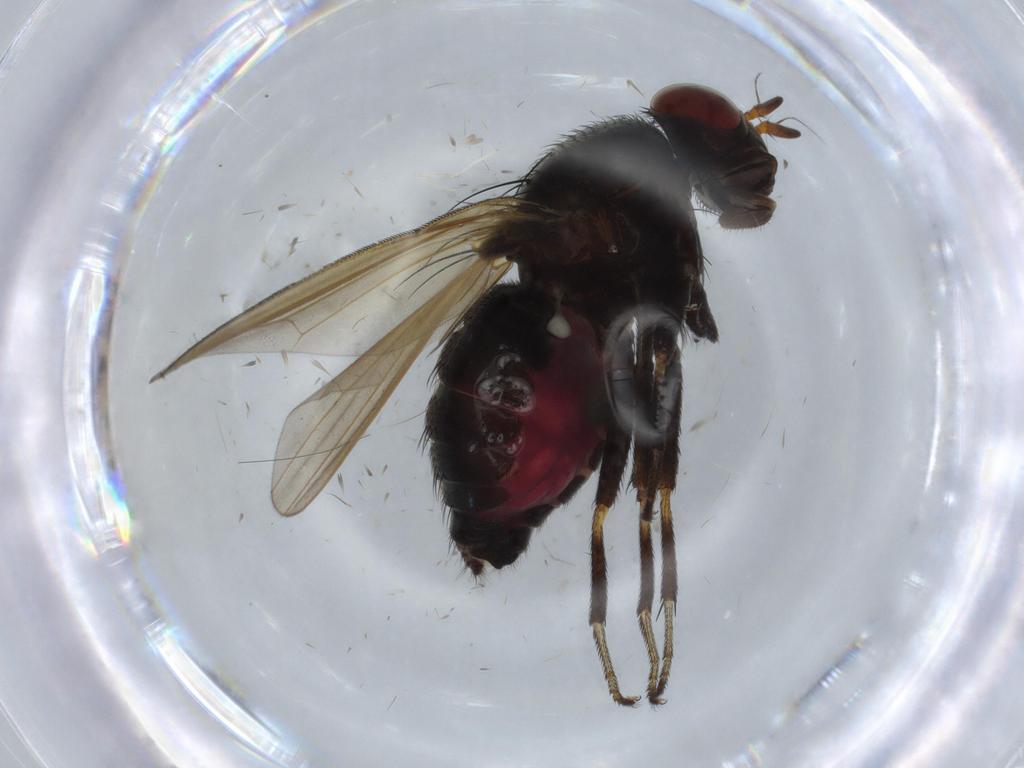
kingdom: Animalia
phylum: Arthropoda
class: Insecta
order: Diptera
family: Lauxaniidae
